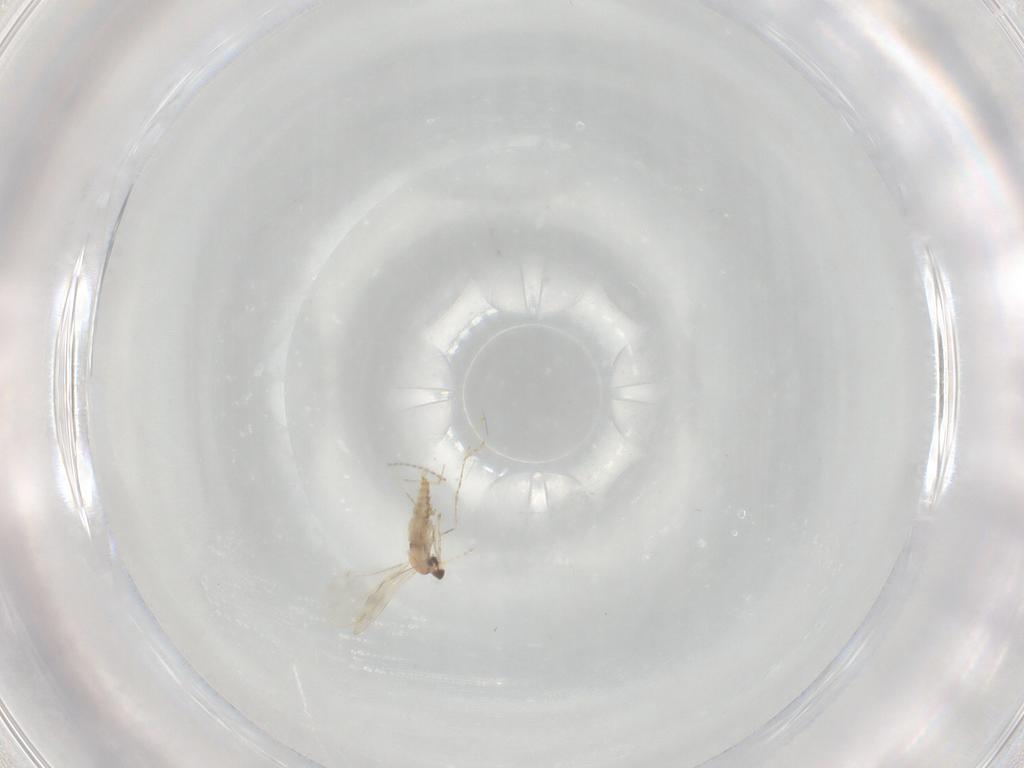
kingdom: Animalia
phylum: Arthropoda
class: Insecta
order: Diptera
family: Cecidomyiidae
